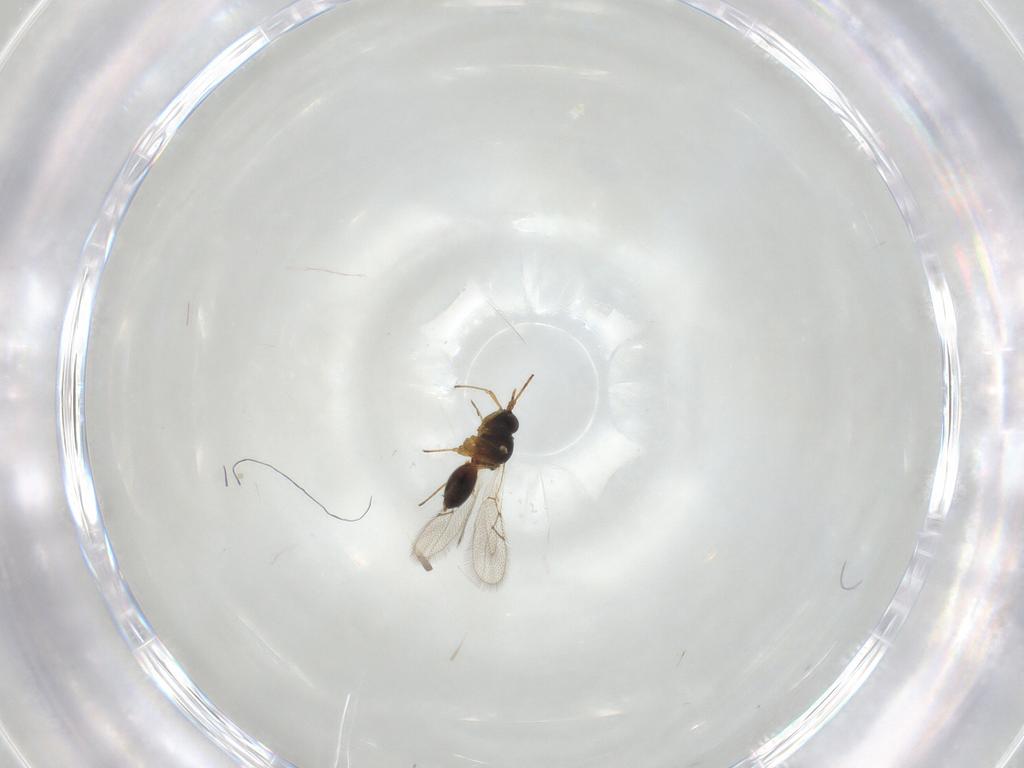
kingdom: Animalia
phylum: Arthropoda
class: Insecta
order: Hymenoptera
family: Figitidae
